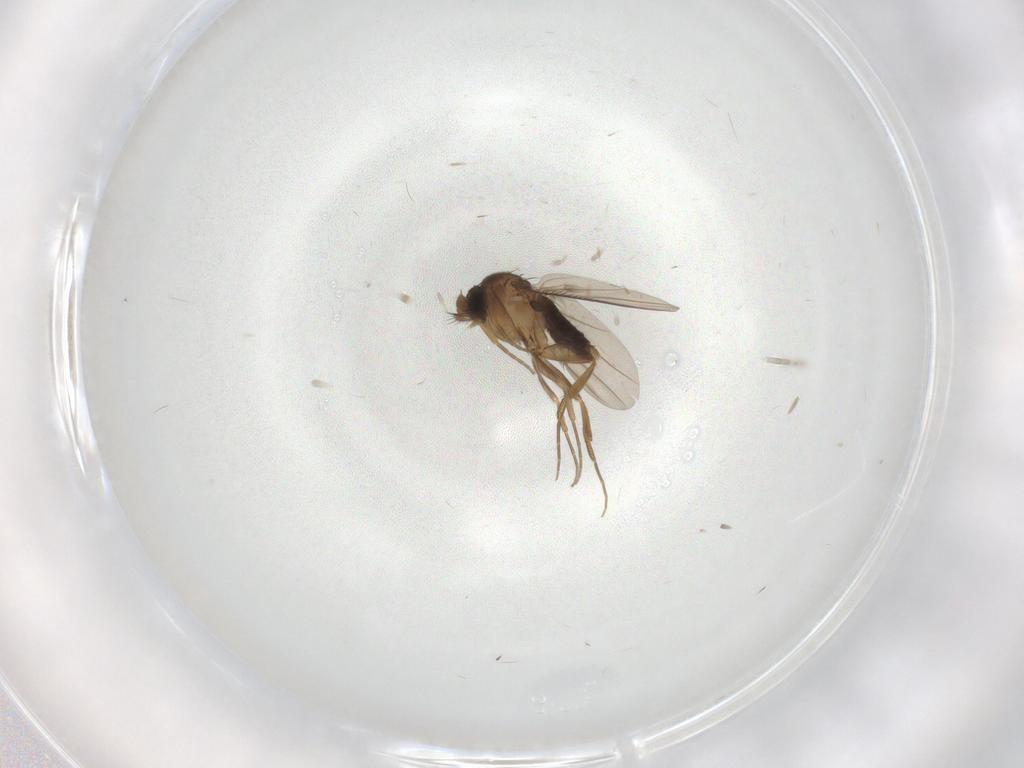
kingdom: Animalia
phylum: Arthropoda
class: Insecta
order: Diptera
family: Phoridae
